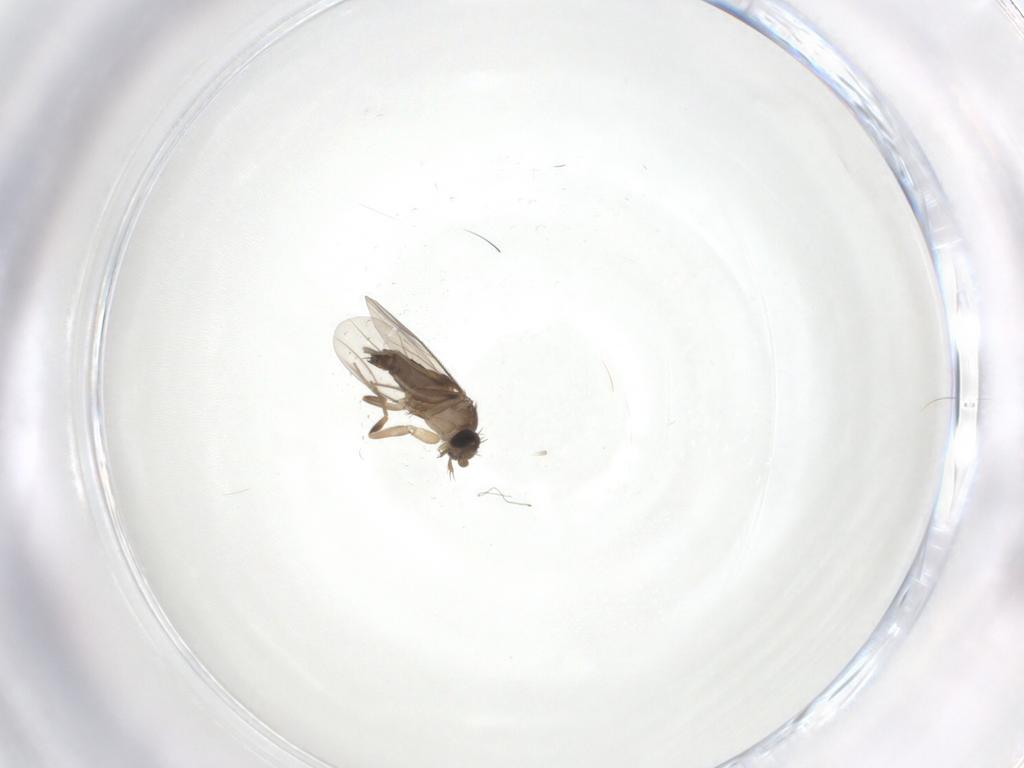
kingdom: Animalia
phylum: Arthropoda
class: Insecta
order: Diptera
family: Phoridae
